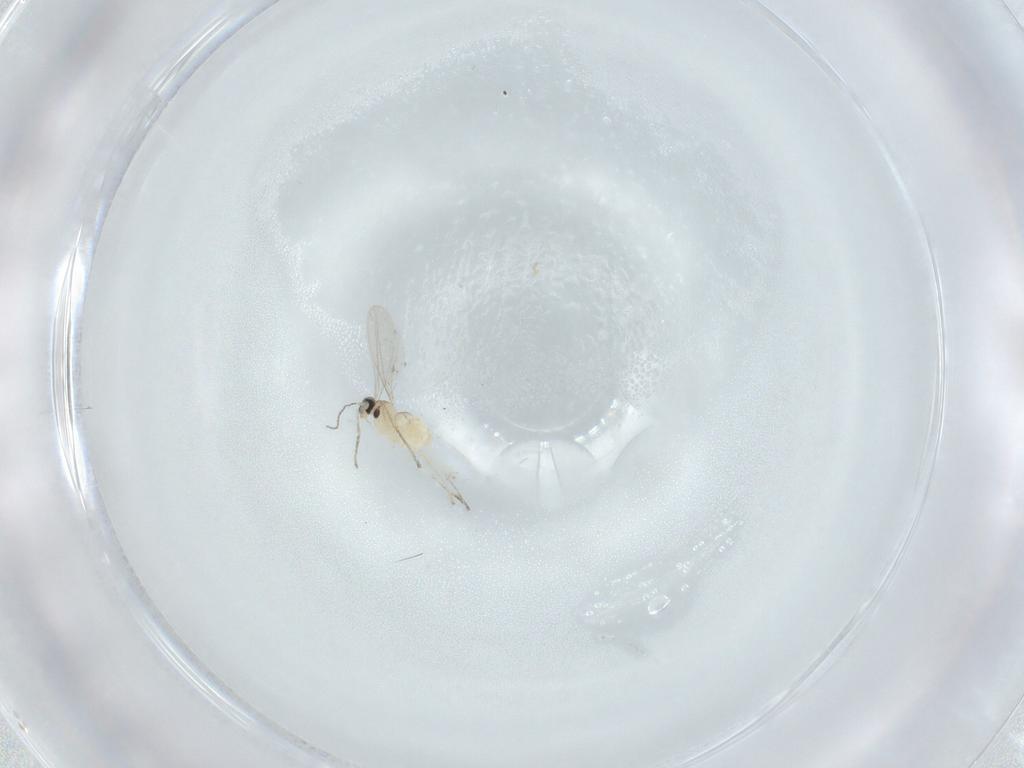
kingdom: Animalia
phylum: Arthropoda
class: Insecta
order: Diptera
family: Cecidomyiidae
